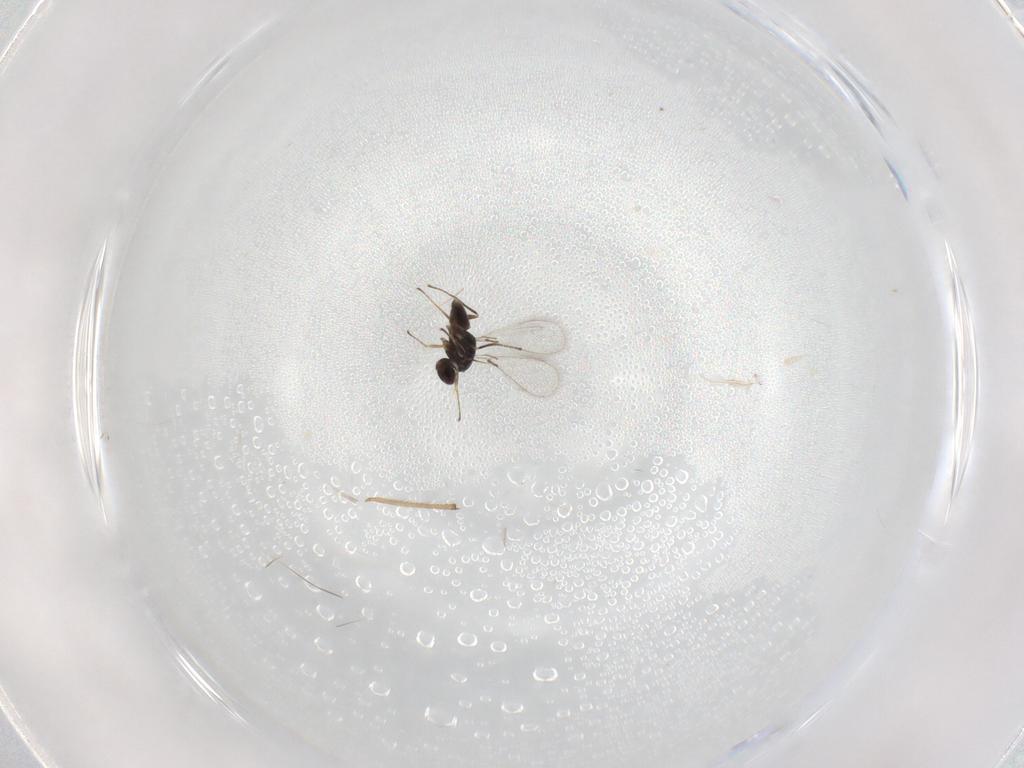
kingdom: Animalia
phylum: Arthropoda
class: Insecta
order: Hymenoptera
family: Mymaridae
